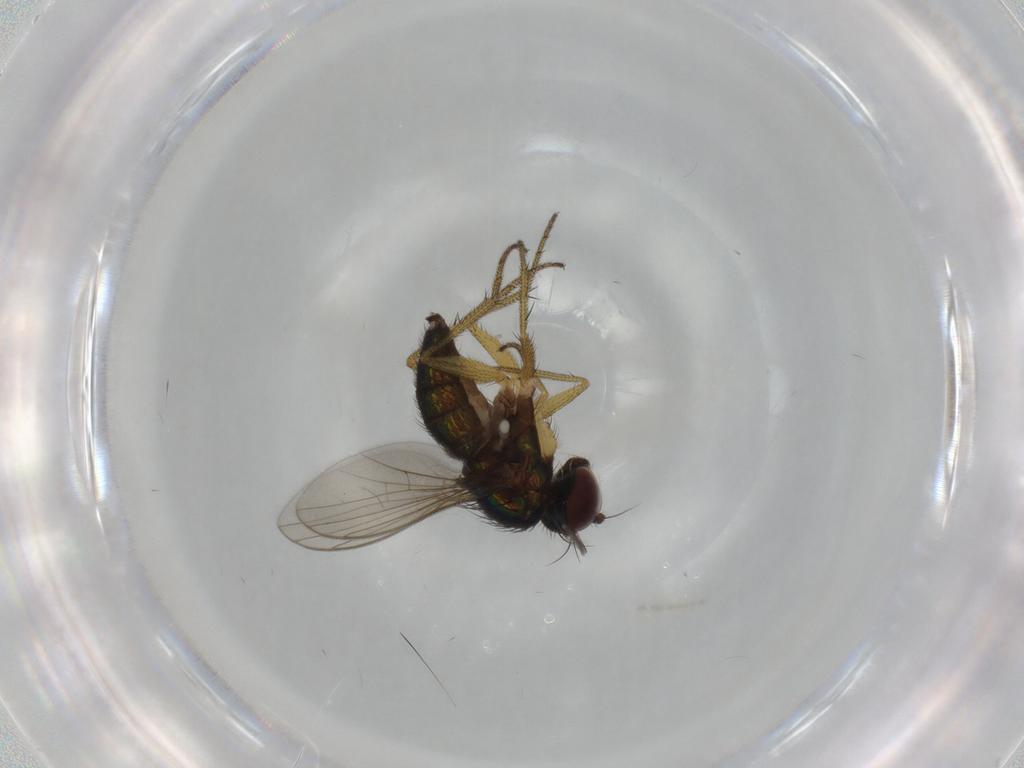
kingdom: Animalia
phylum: Arthropoda
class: Insecta
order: Diptera
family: Dolichopodidae
